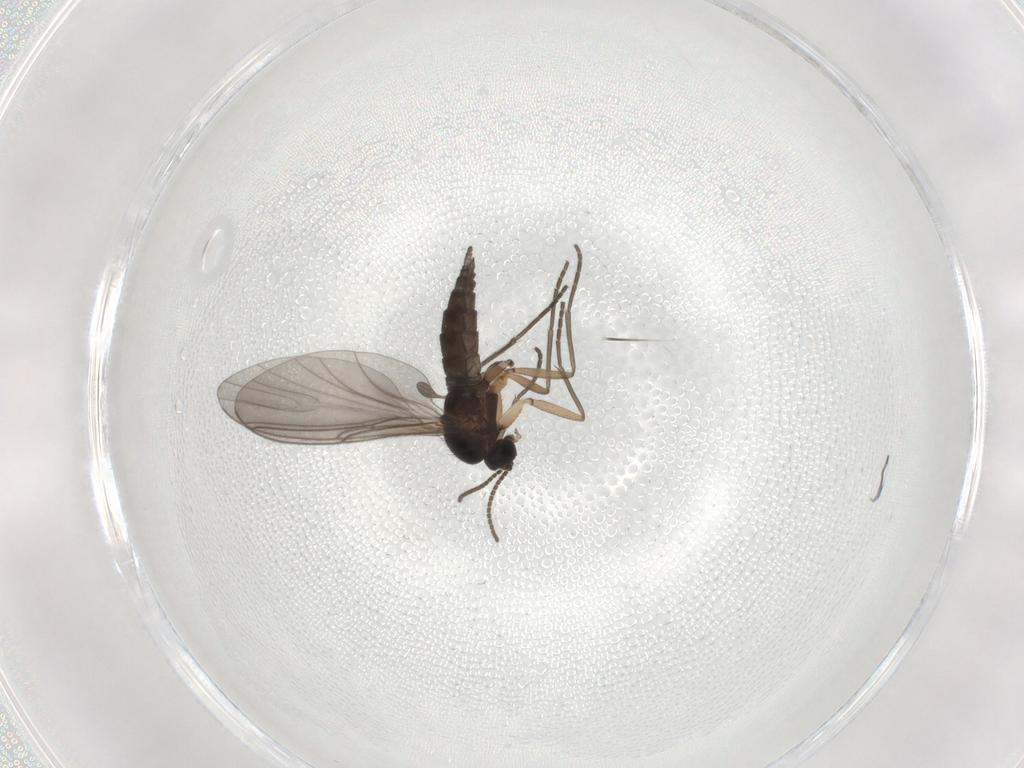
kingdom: Animalia
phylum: Arthropoda
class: Insecta
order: Diptera
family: Sciaridae
